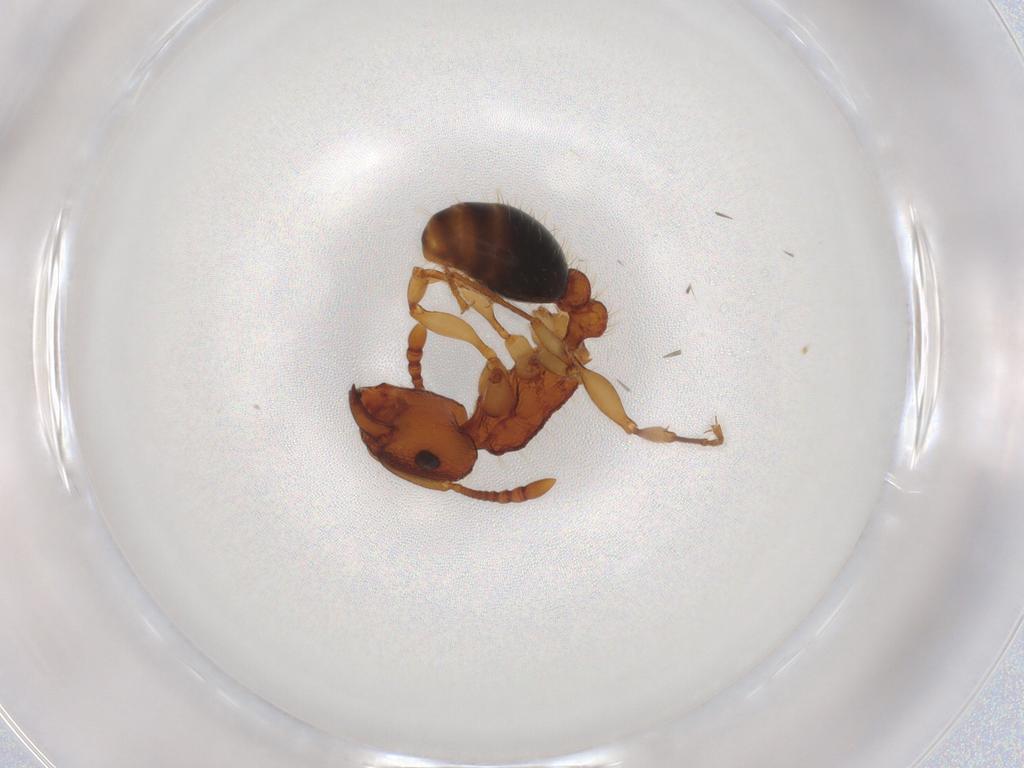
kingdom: Animalia
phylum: Arthropoda
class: Insecta
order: Hymenoptera
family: Formicidae
